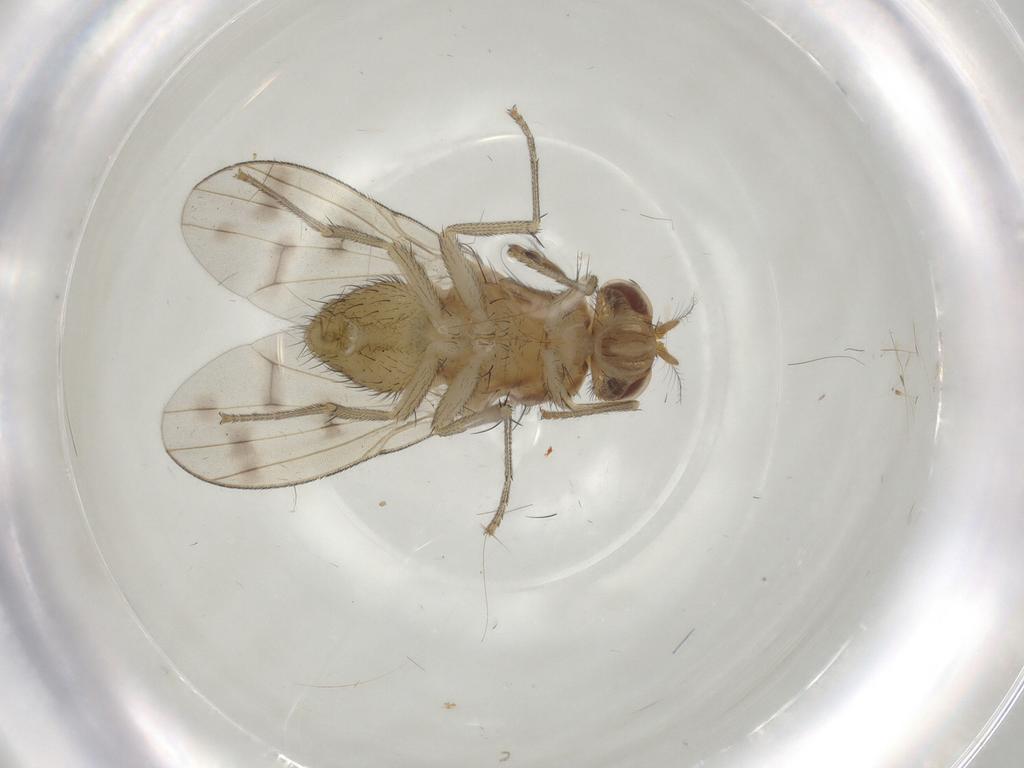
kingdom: Animalia
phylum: Arthropoda
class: Insecta
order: Diptera
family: Chironomidae
